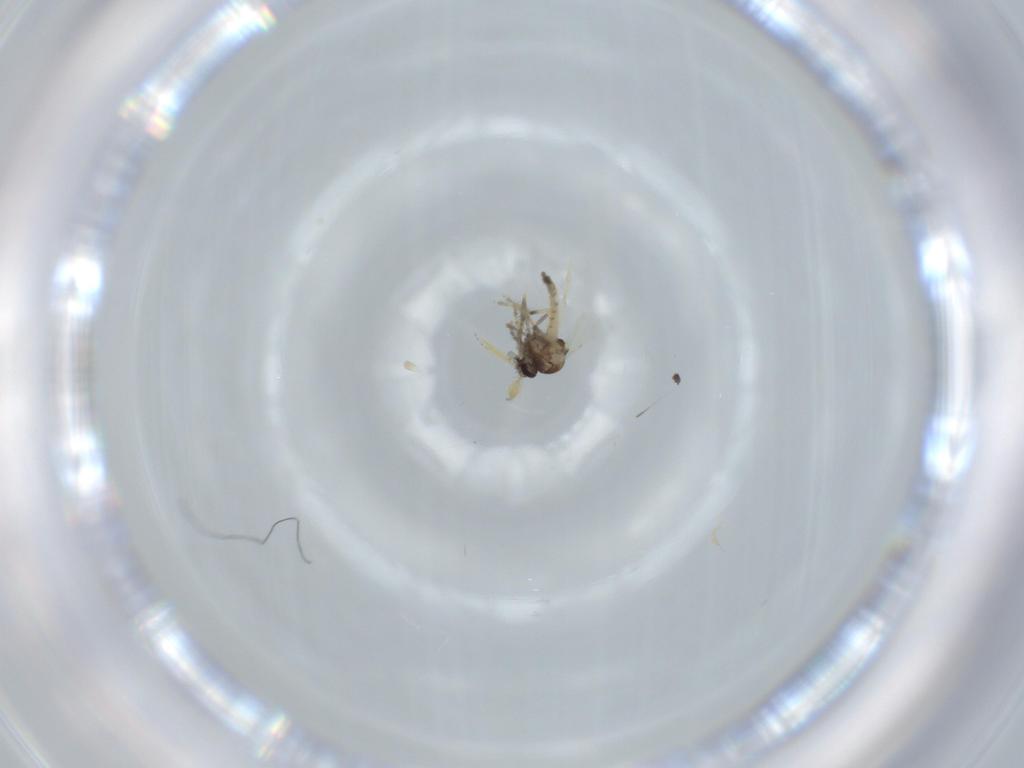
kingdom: Animalia
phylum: Arthropoda
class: Insecta
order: Diptera
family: Ceratopogonidae
